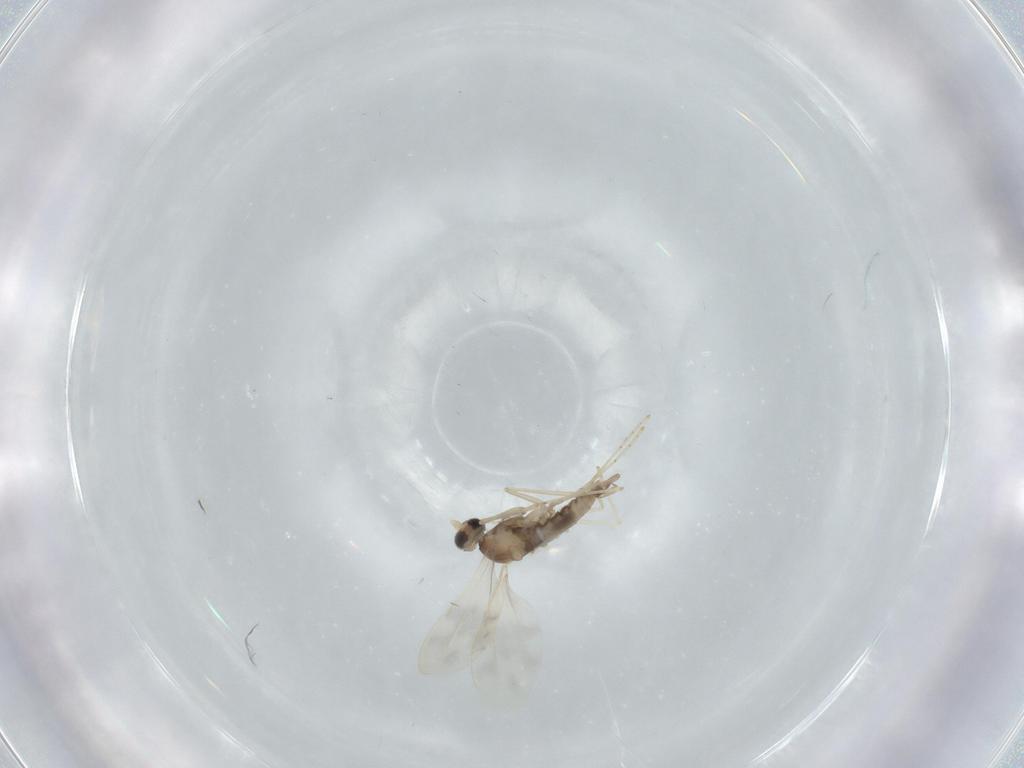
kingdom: Animalia
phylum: Arthropoda
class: Insecta
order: Diptera
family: Cecidomyiidae
